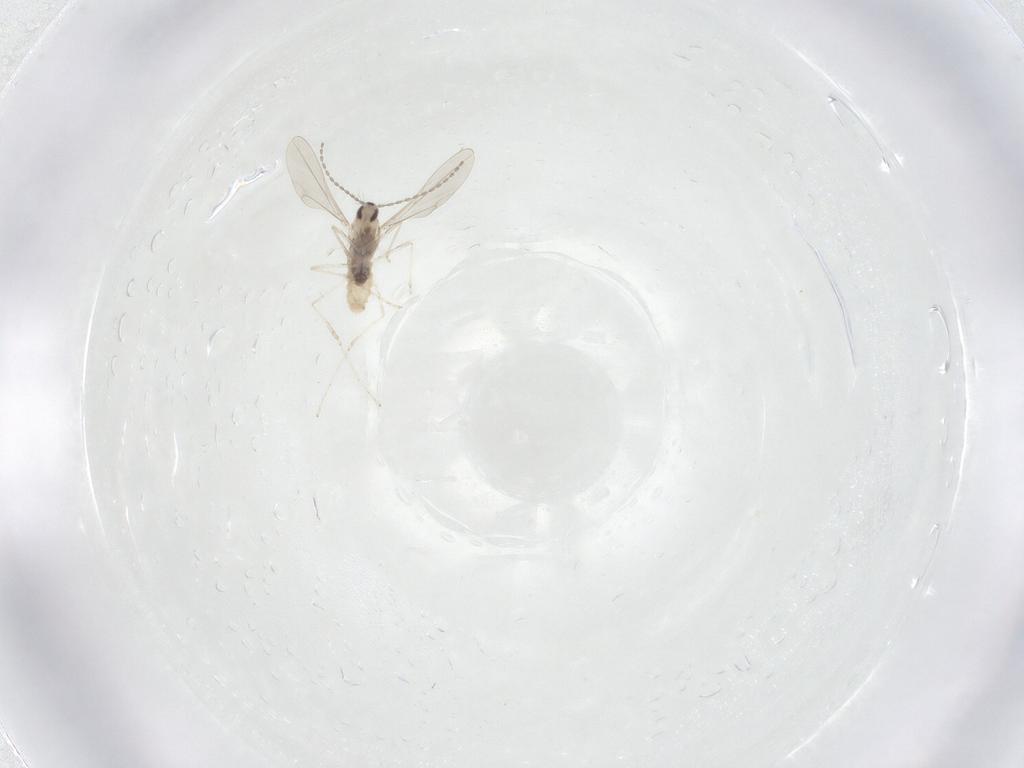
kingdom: Animalia
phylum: Arthropoda
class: Insecta
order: Diptera
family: Cecidomyiidae
